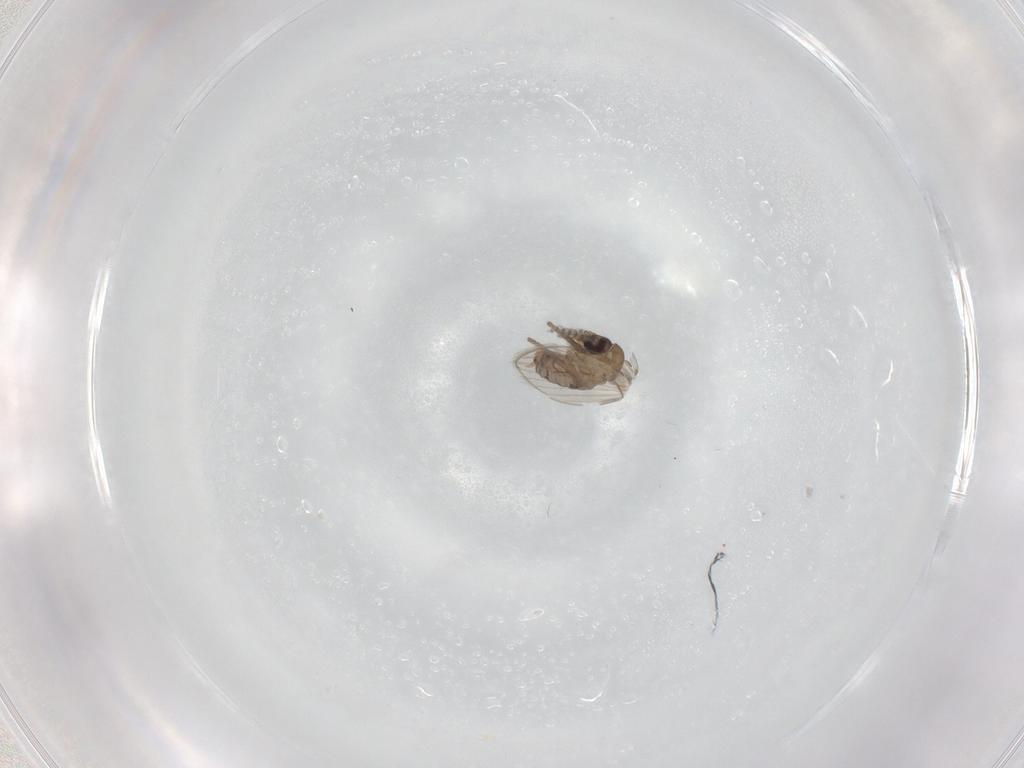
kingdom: Animalia
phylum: Arthropoda
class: Insecta
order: Diptera
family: Psychodidae
